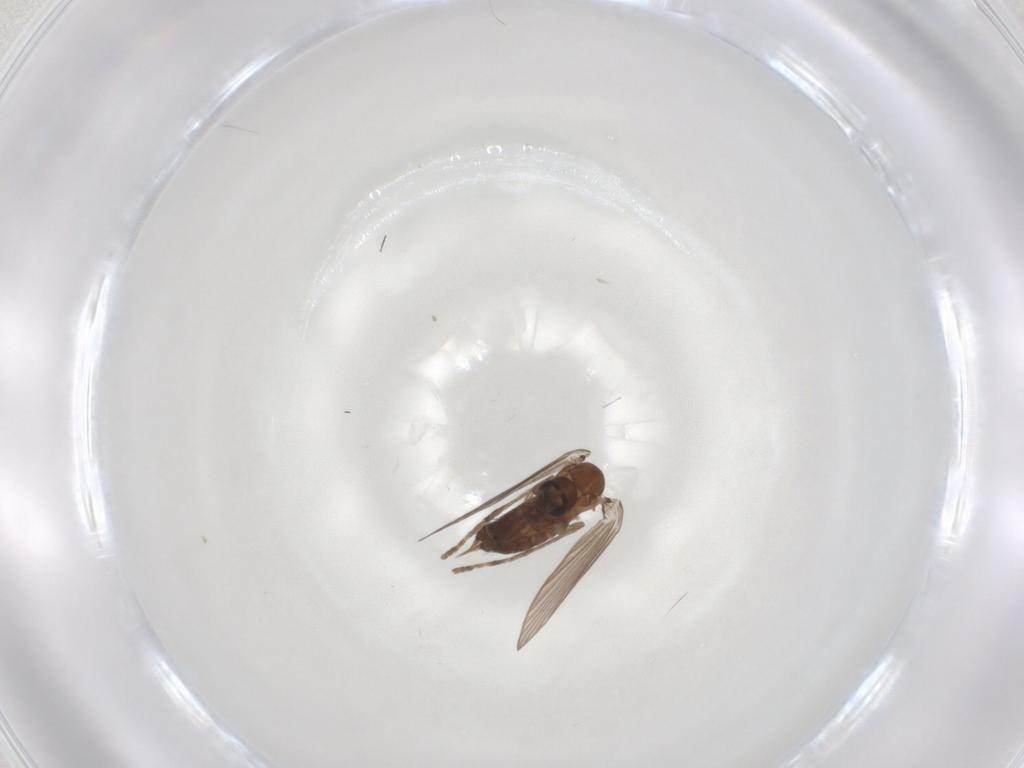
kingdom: Animalia
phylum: Arthropoda
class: Insecta
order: Diptera
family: Psychodidae
